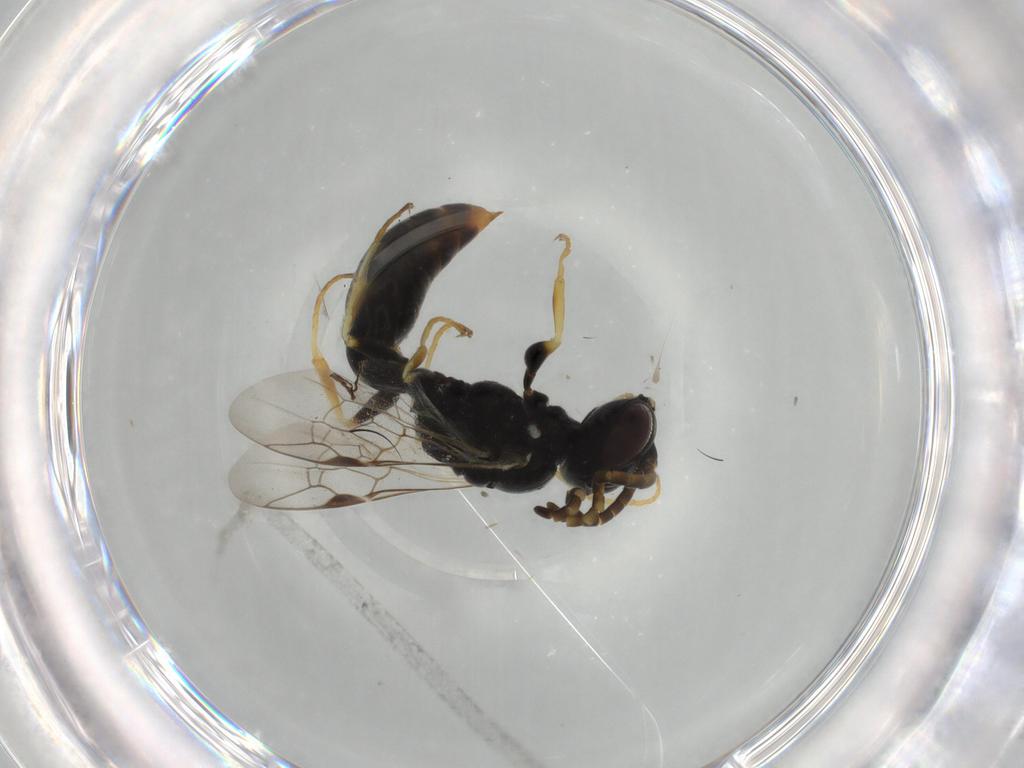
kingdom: Animalia
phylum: Arthropoda
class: Insecta
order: Hymenoptera
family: Crabronidae
